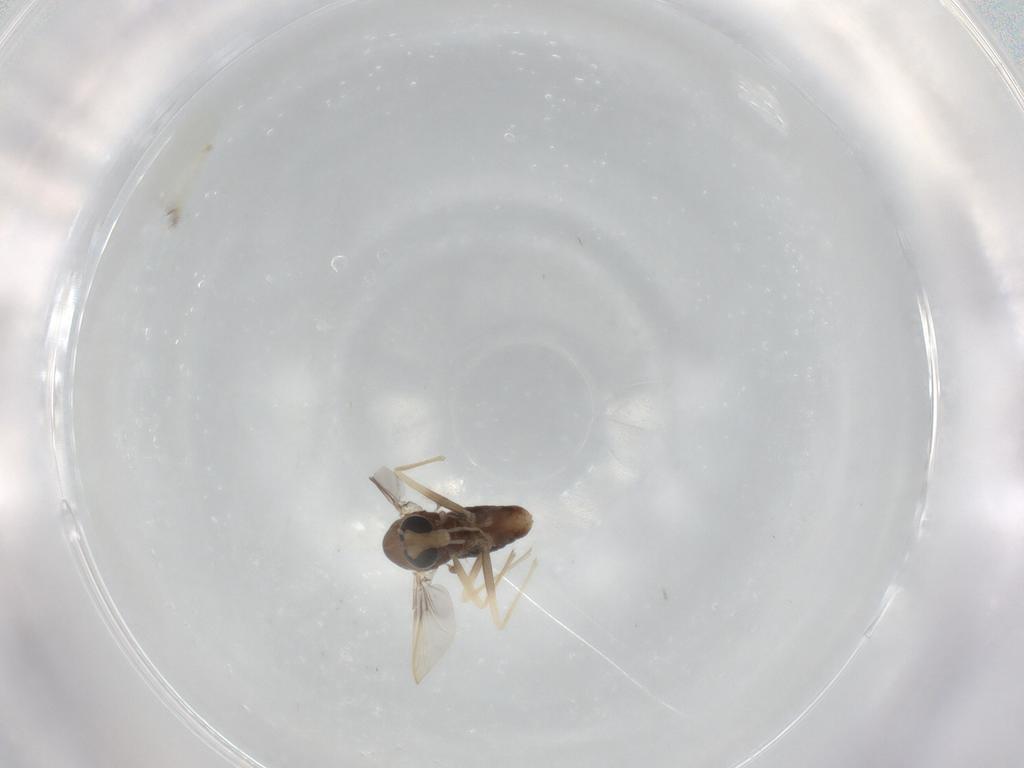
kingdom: Animalia
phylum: Arthropoda
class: Insecta
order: Diptera
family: Chironomidae
